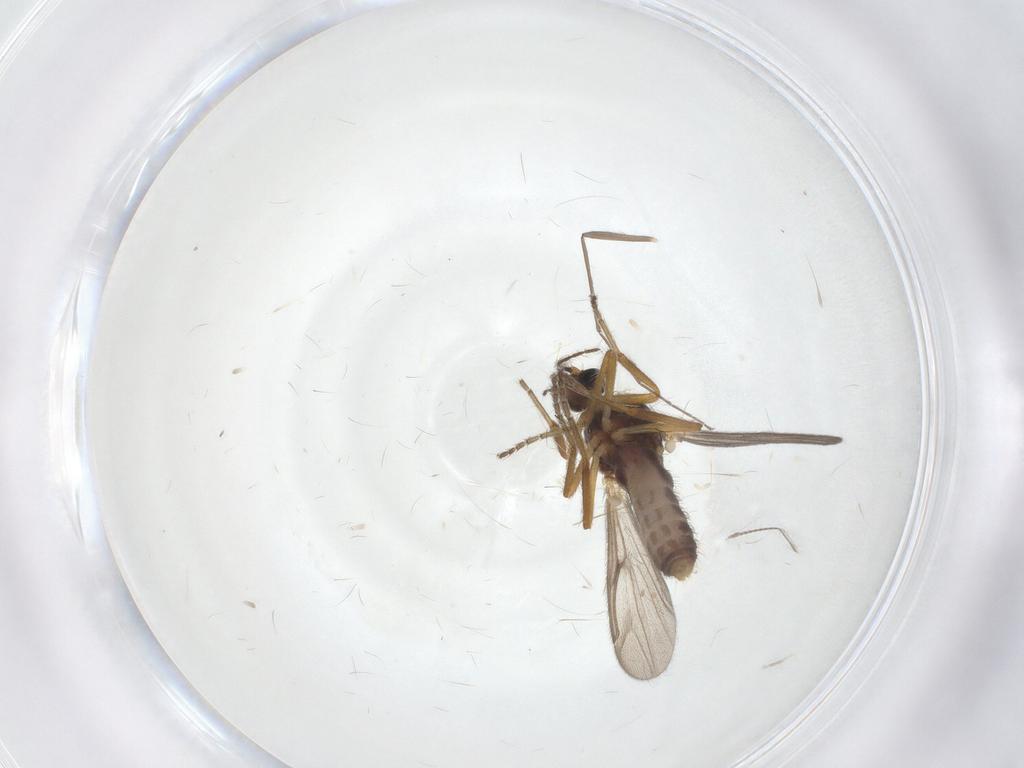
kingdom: Animalia
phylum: Arthropoda
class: Insecta
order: Diptera
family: Ceratopogonidae
